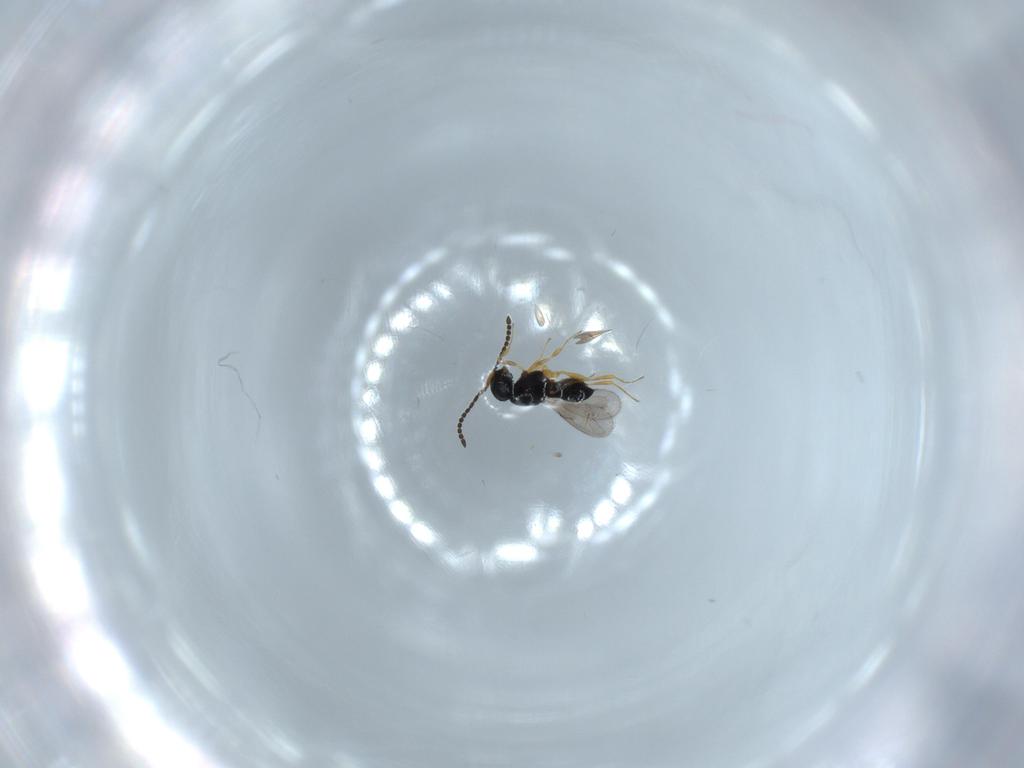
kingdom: Animalia
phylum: Arthropoda
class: Insecta
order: Hymenoptera
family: Scelionidae
